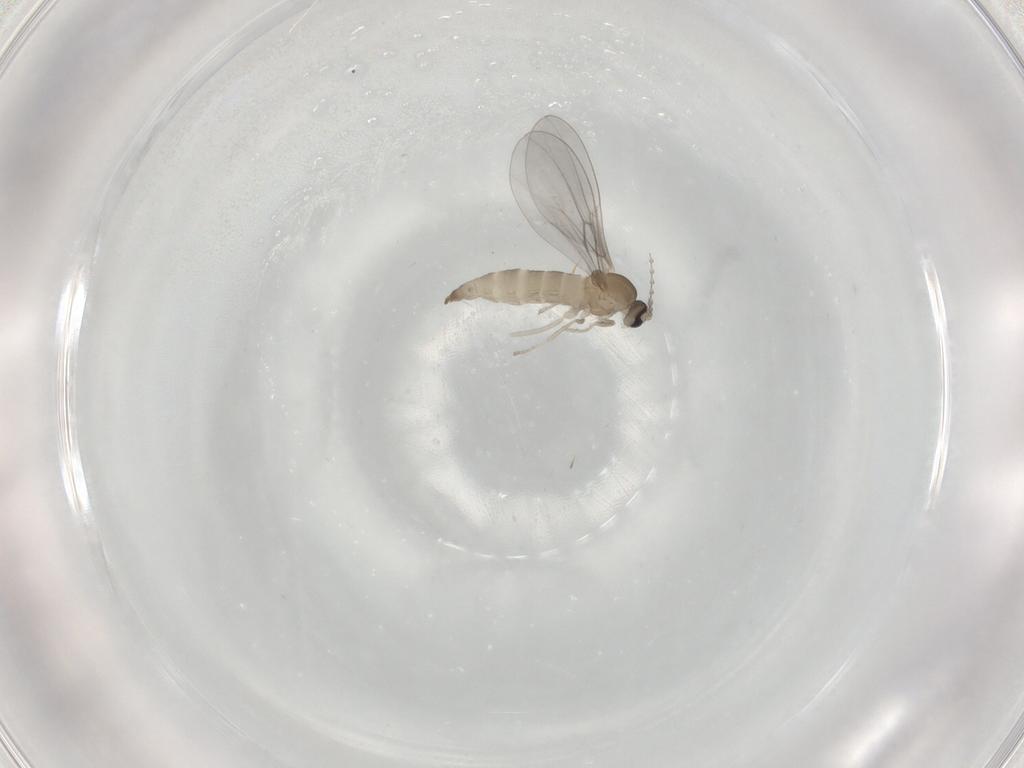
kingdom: Animalia
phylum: Arthropoda
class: Insecta
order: Diptera
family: Cecidomyiidae
